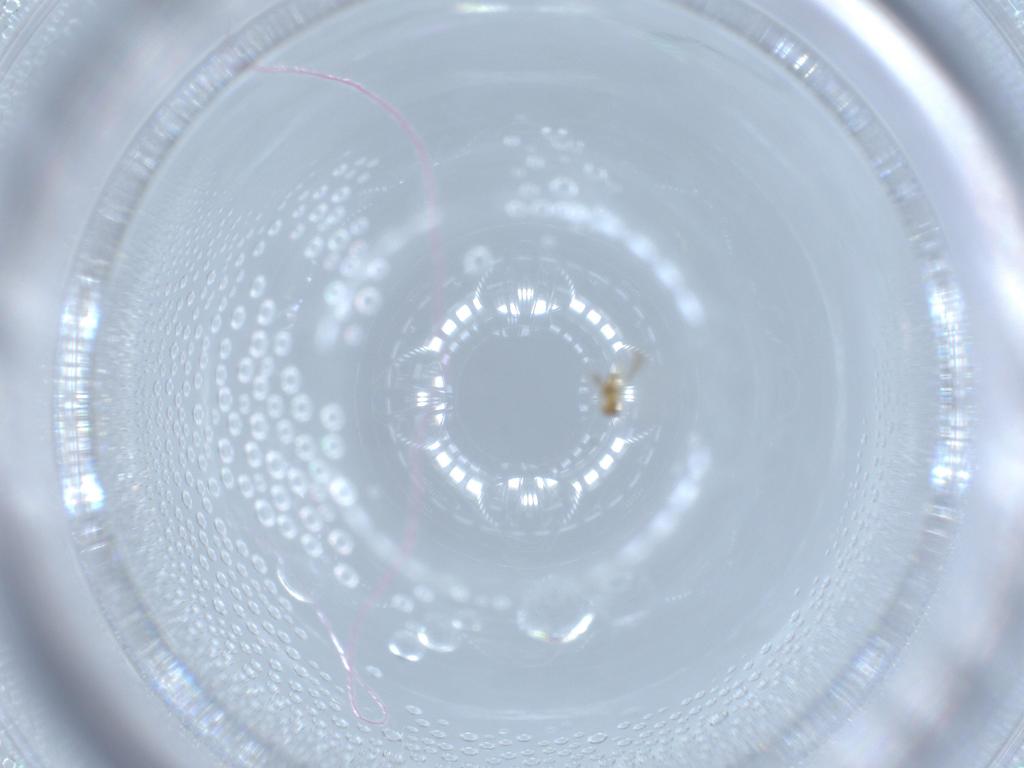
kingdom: Animalia
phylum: Arthropoda
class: Insecta
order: Hymenoptera
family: Mymaridae
